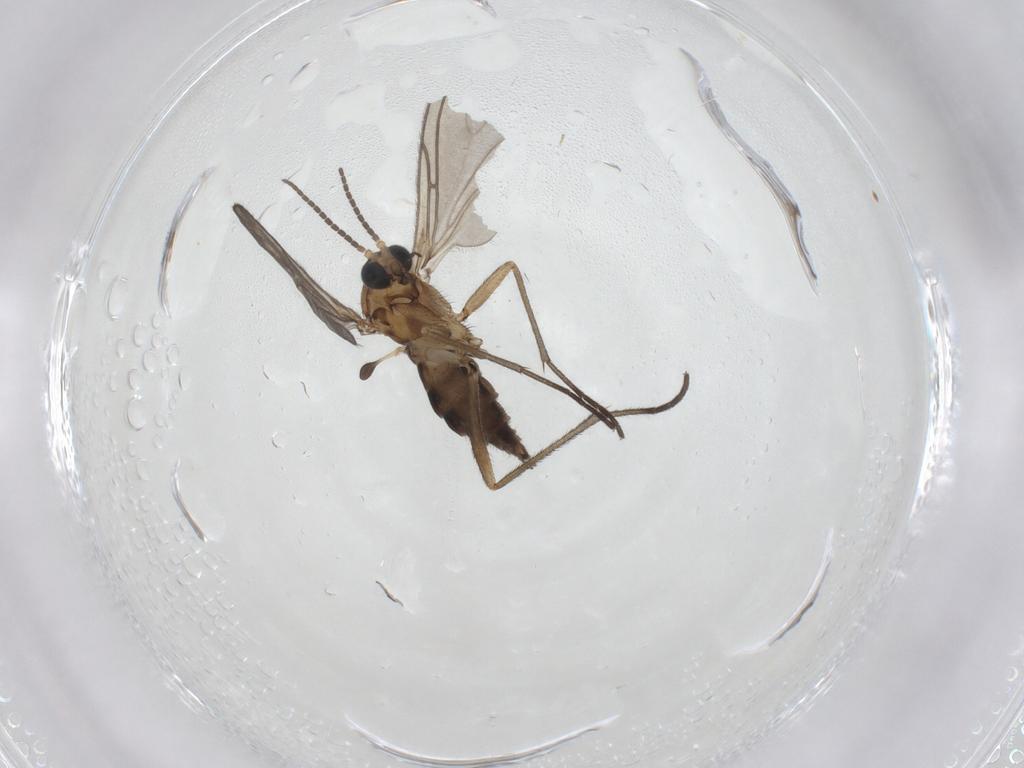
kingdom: Animalia
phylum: Arthropoda
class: Insecta
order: Diptera
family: Sciaridae
